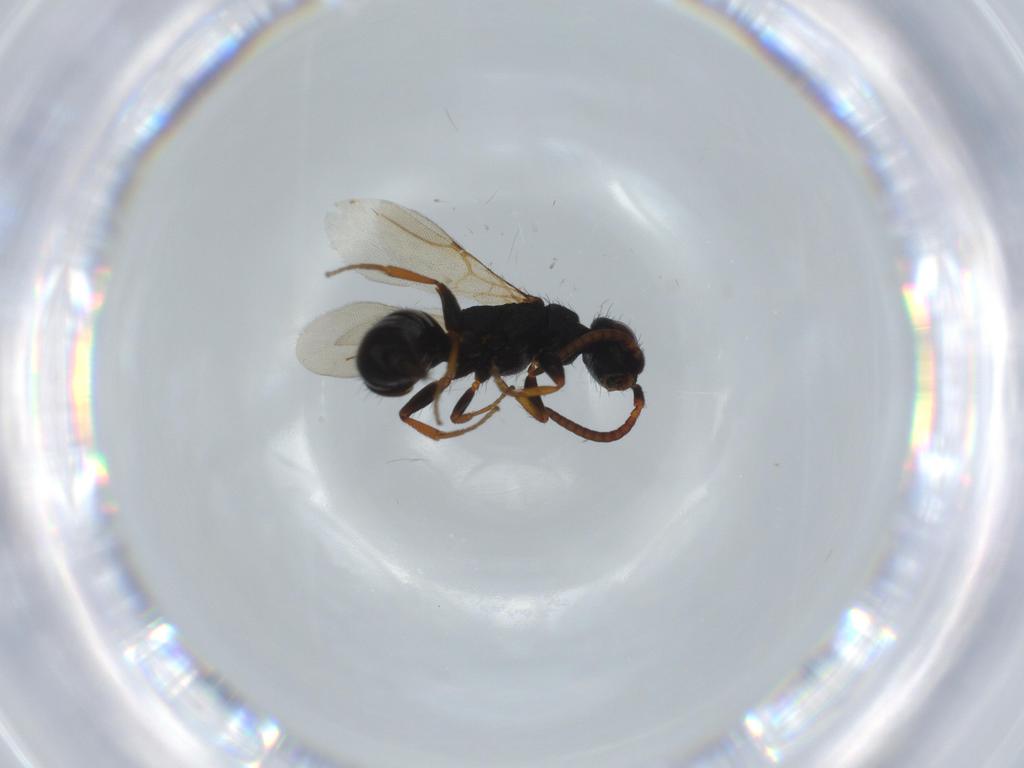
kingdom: Animalia
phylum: Arthropoda
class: Insecta
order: Hymenoptera
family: Bethylidae
